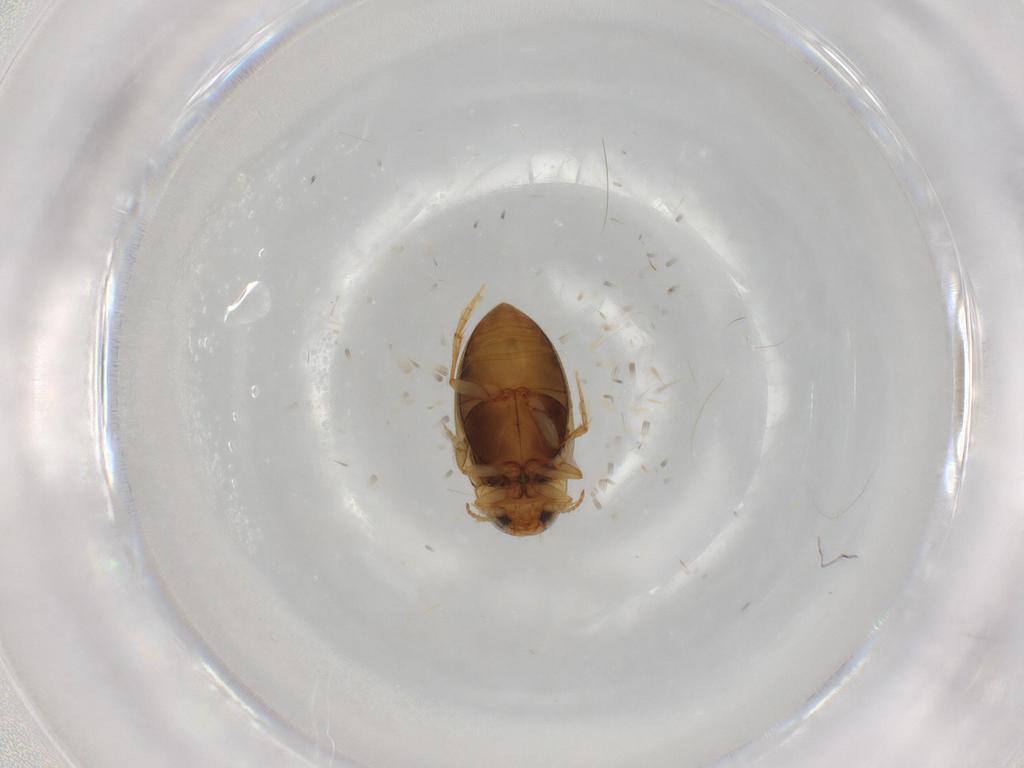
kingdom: Animalia
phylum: Arthropoda
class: Insecta
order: Coleoptera
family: Dytiscidae
